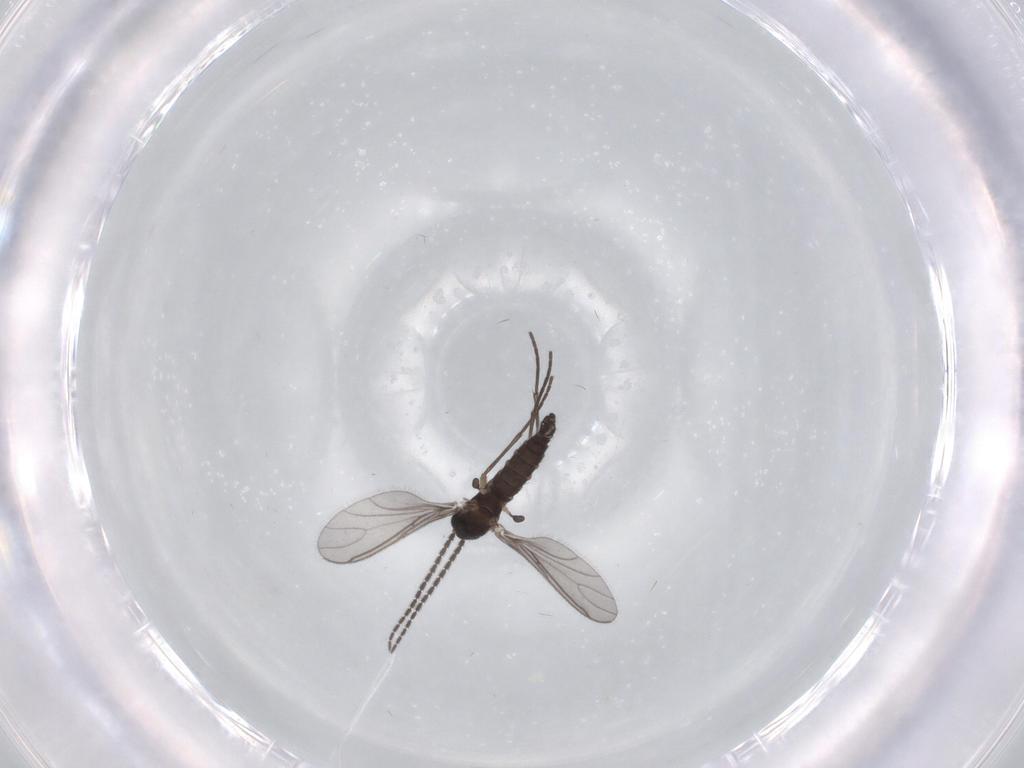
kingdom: Animalia
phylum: Arthropoda
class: Insecta
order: Diptera
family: Sciaridae
